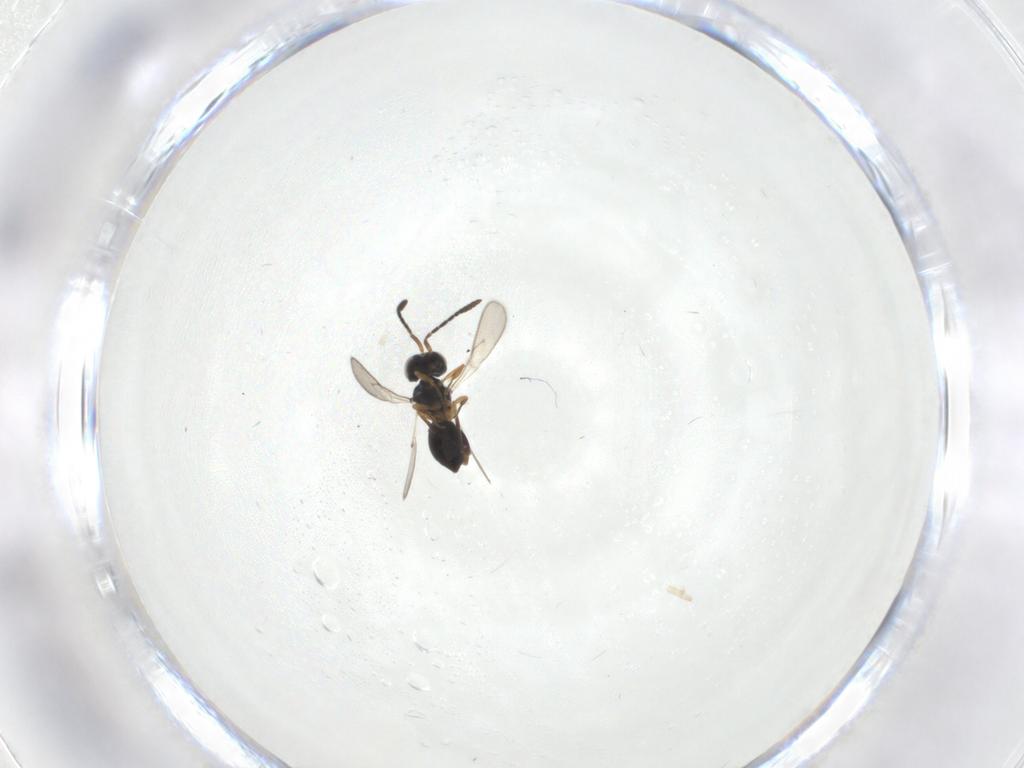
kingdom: Animalia
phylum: Arthropoda
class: Insecta
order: Hymenoptera
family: Scelionidae
